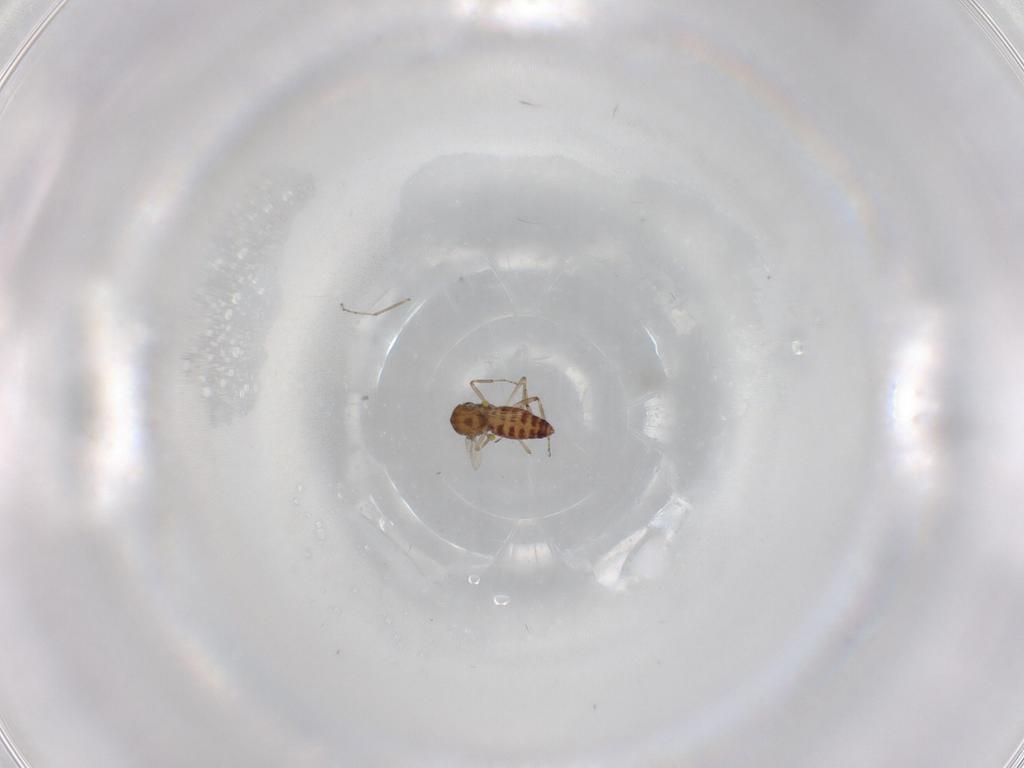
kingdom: Animalia
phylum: Arthropoda
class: Insecta
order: Diptera
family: Ceratopogonidae
